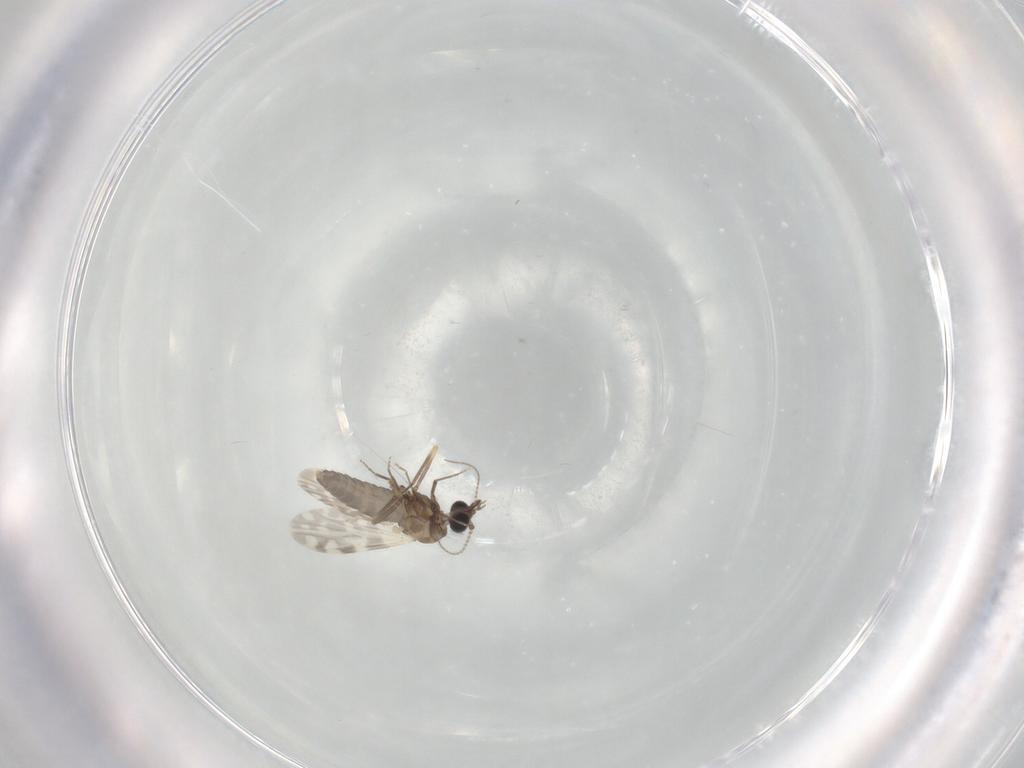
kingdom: Animalia
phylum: Arthropoda
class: Insecta
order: Diptera
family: Ceratopogonidae
